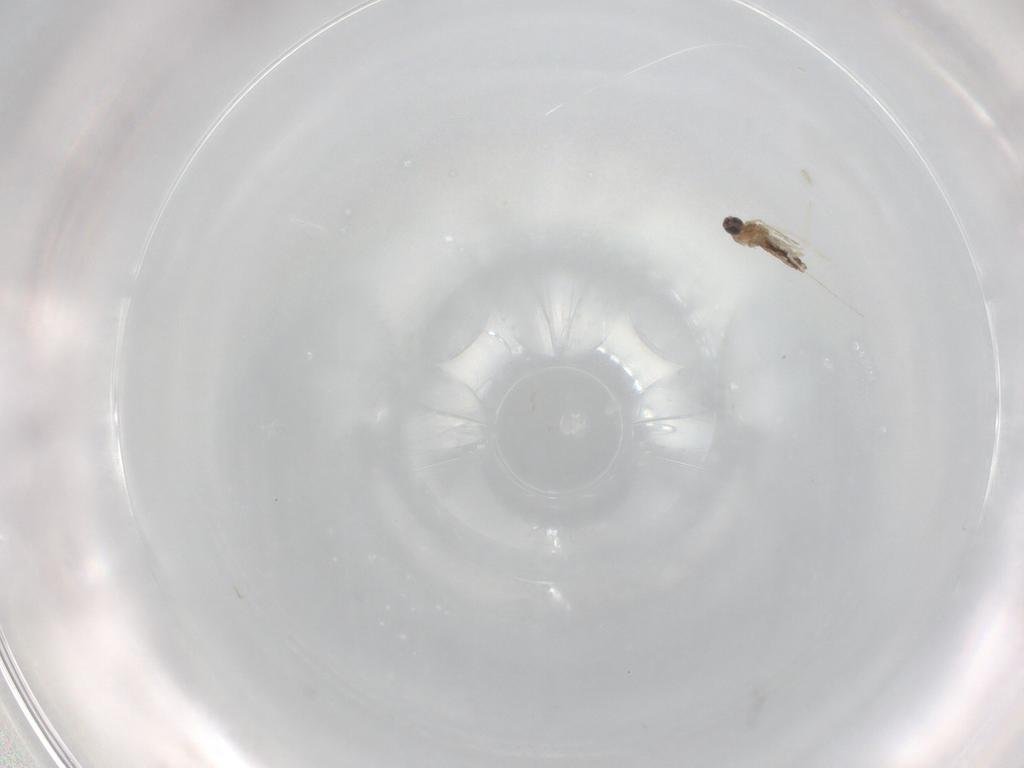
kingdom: Animalia
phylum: Arthropoda
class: Insecta
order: Diptera
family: Cecidomyiidae
